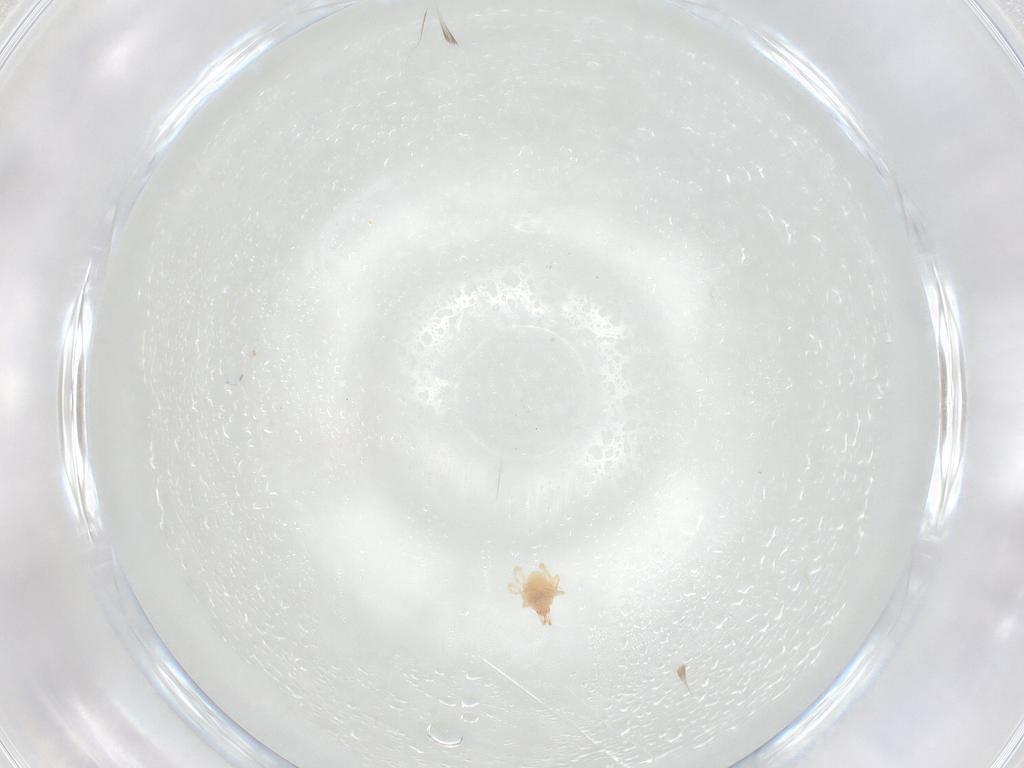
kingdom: Animalia
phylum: Arthropoda
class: Arachnida
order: Trombidiformes
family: Cunaxidae
